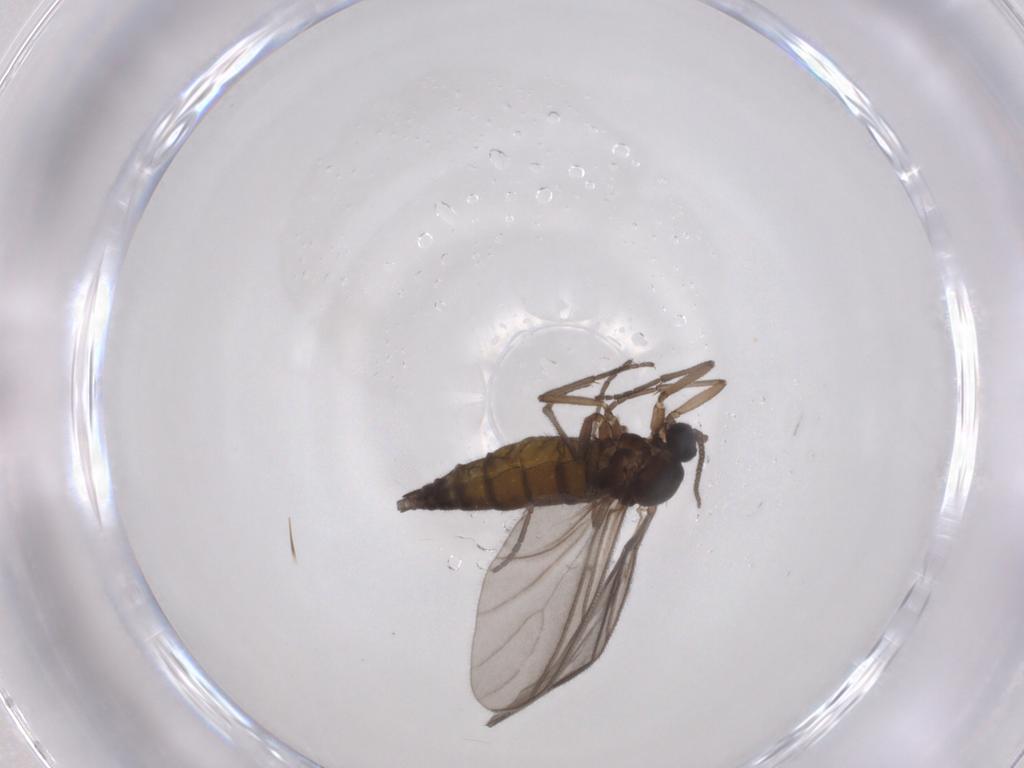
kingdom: Animalia
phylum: Arthropoda
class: Insecta
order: Diptera
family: Sciaridae
